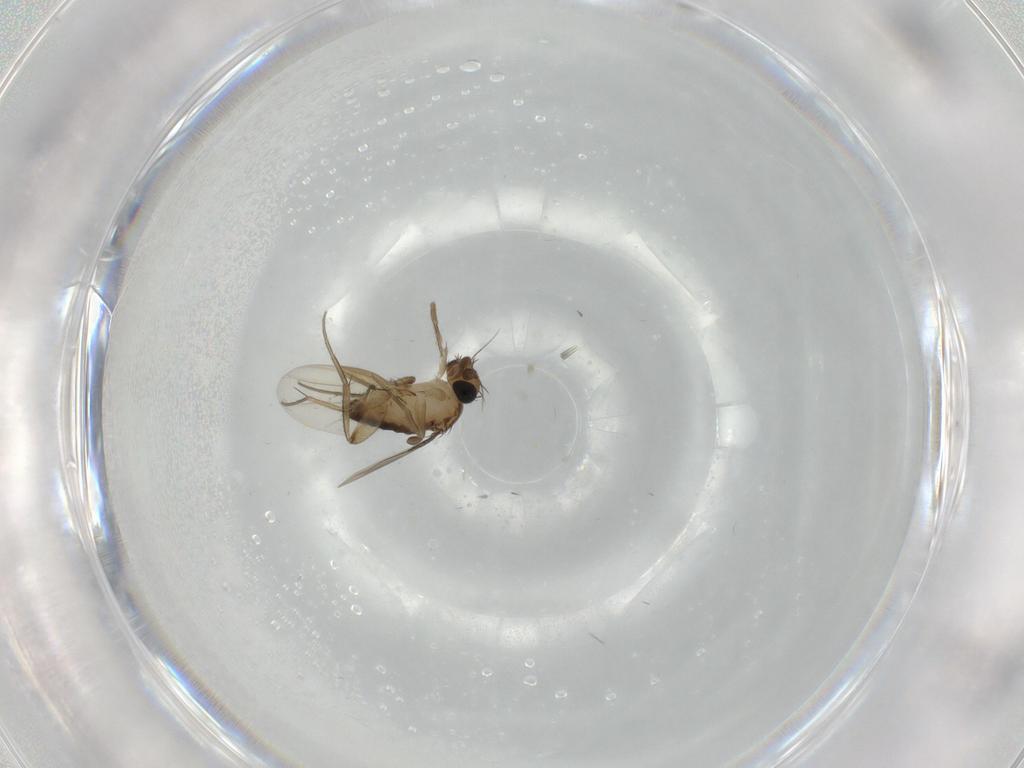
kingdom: Animalia
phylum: Arthropoda
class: Insecta
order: Diptera
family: Phoridae
